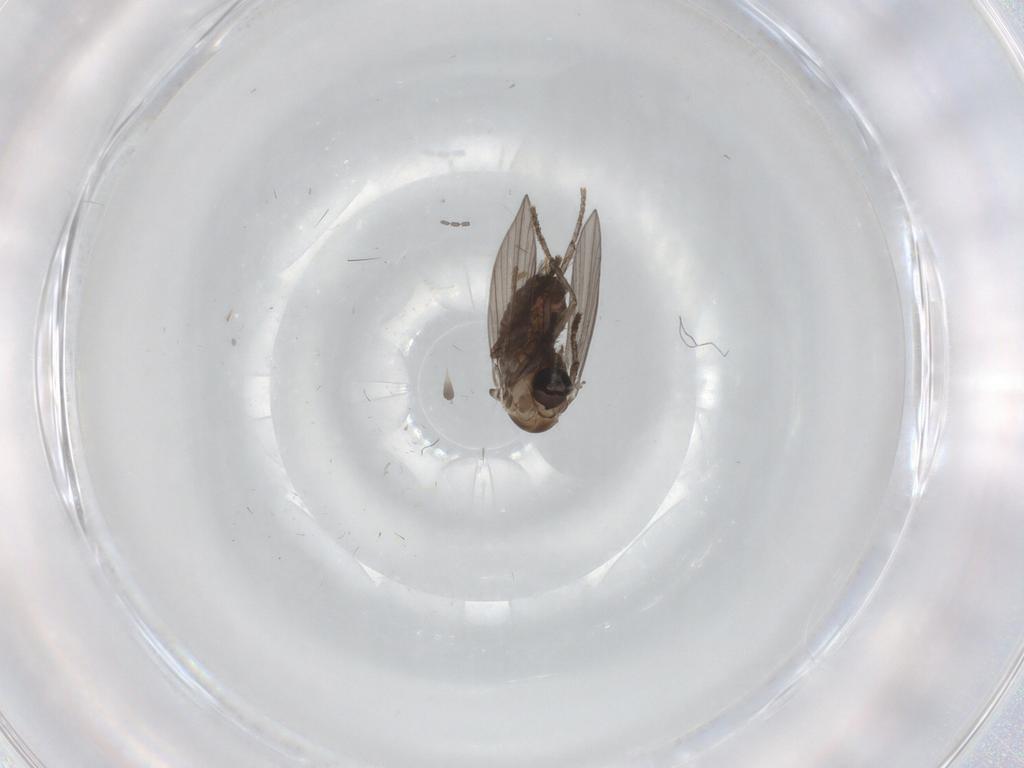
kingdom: Animalia
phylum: Arthropoda
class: Insecta
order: Diptera
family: Psychodidae
